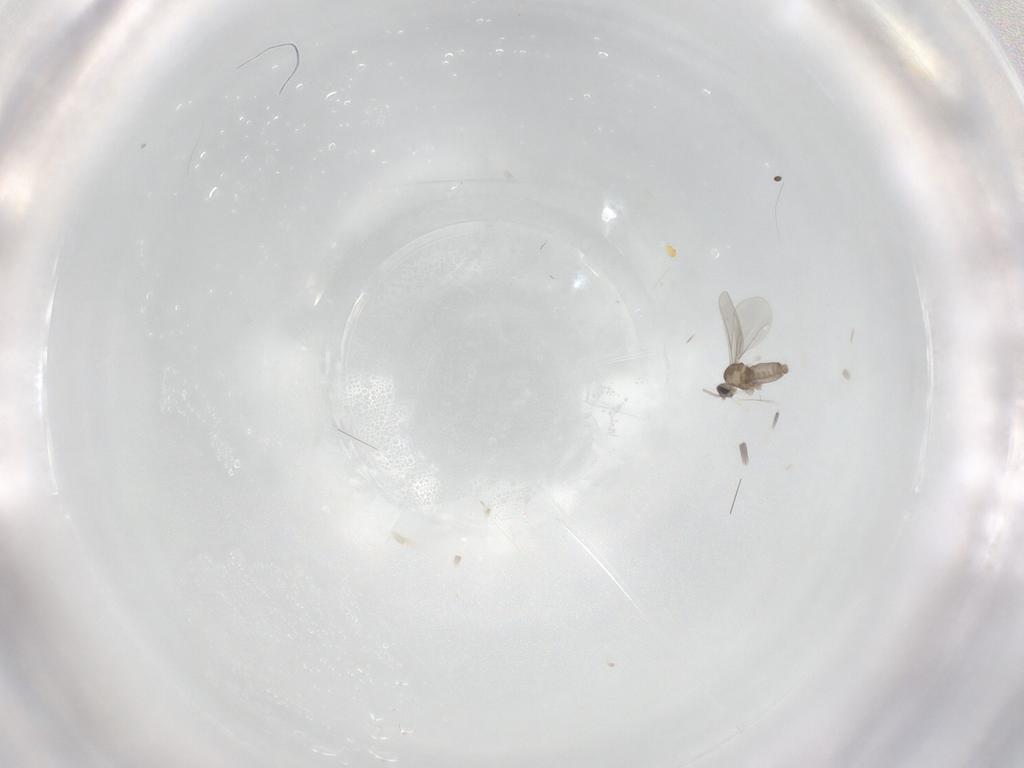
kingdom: Animalia
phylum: Arthropoda
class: Insecta
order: Diptera
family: Cecidomyiidae
